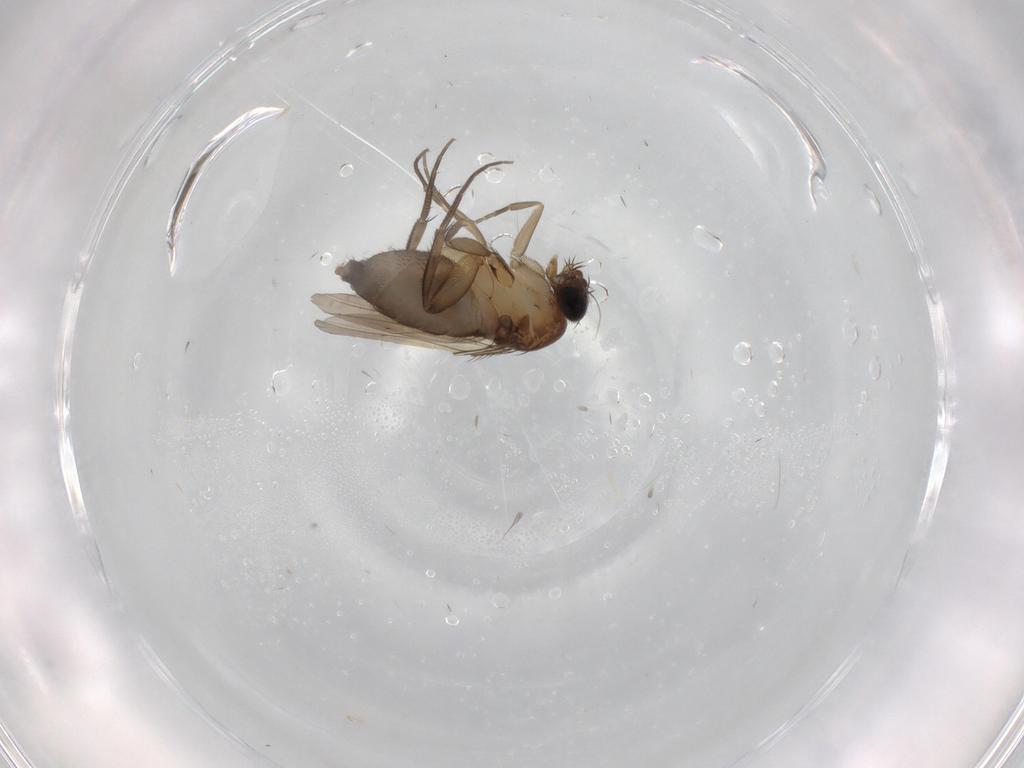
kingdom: Animalia
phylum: Arthropoda
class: Insecta
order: Diptera
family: Phoridae
